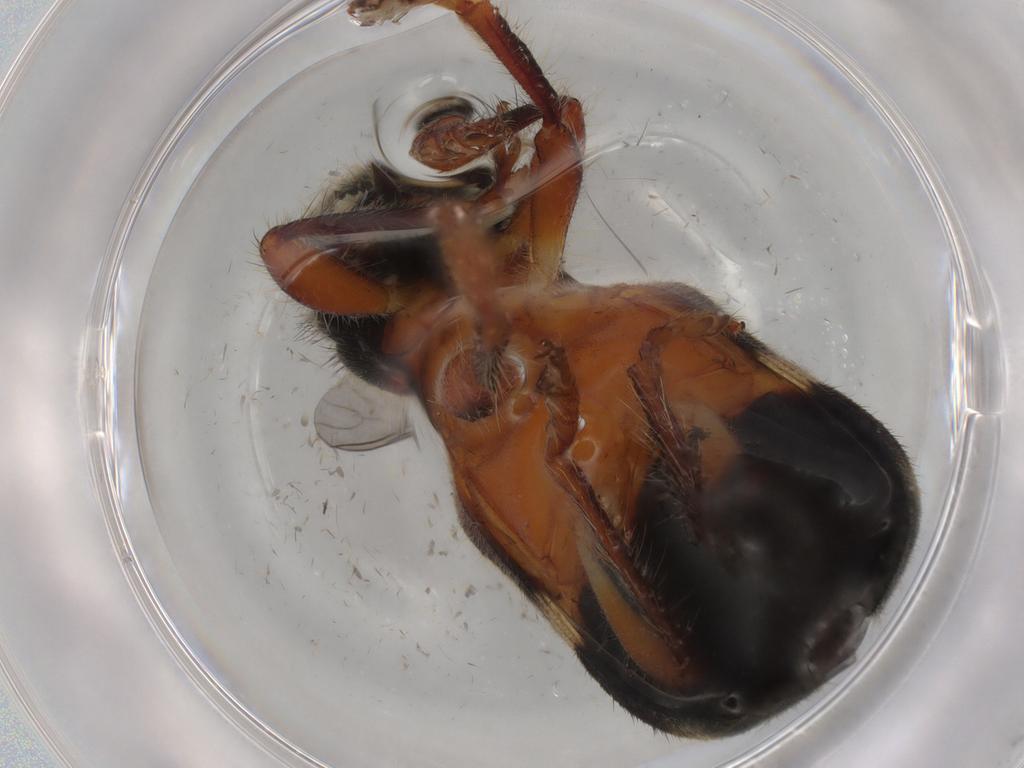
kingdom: Animalia
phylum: Arthropoda
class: Insecta
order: Coleoptera
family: Coccinellidae
